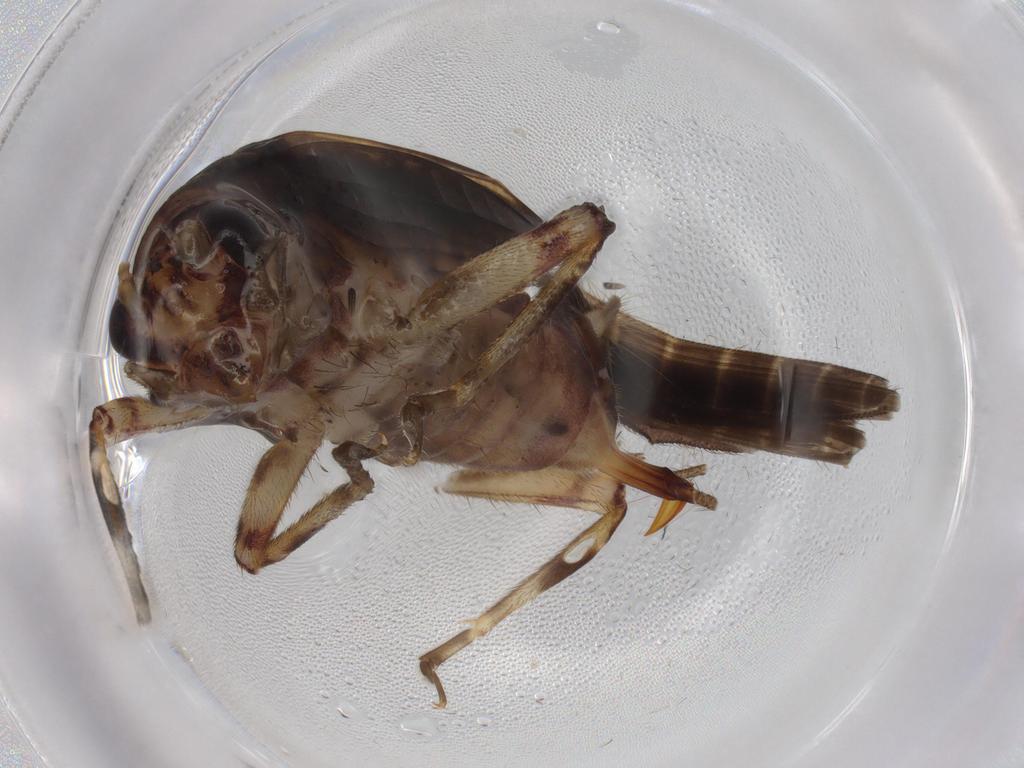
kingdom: Animalia
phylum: Arthropoda
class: Insecta
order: Orthoptera
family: Trigonidiidae
